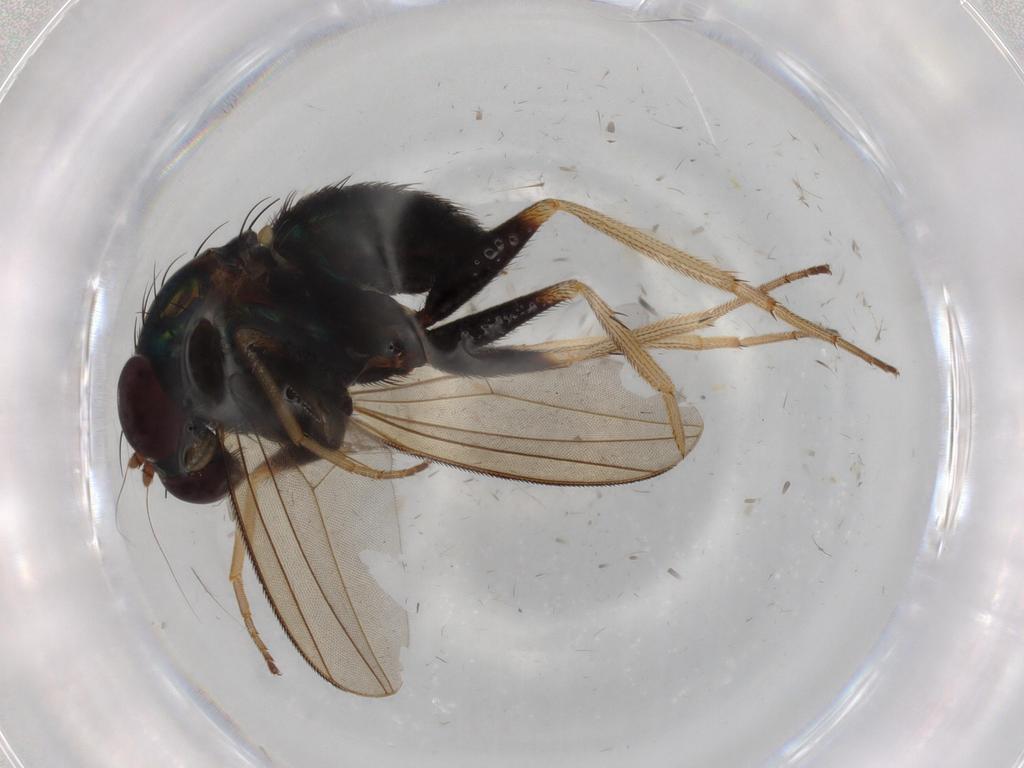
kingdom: Animalia
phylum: Arthropoda
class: Insecta
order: Diptera
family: Dolichopodidae
